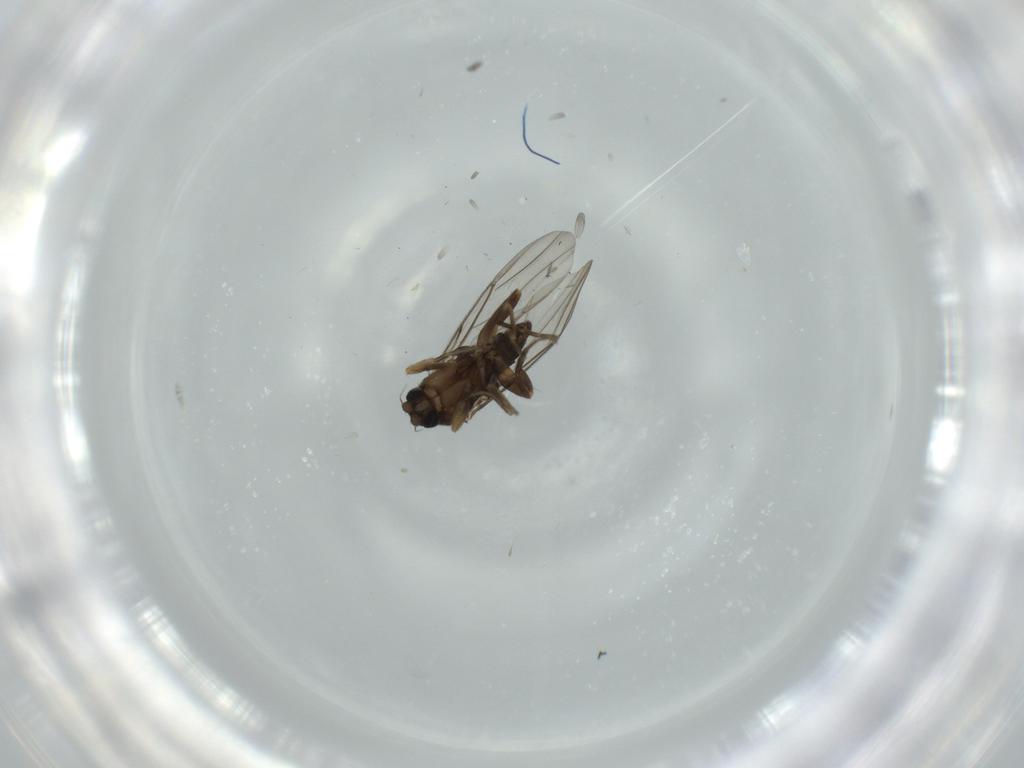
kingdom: Animalia
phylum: Arthropoda
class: Insecta
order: Diptera
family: Phoridae
